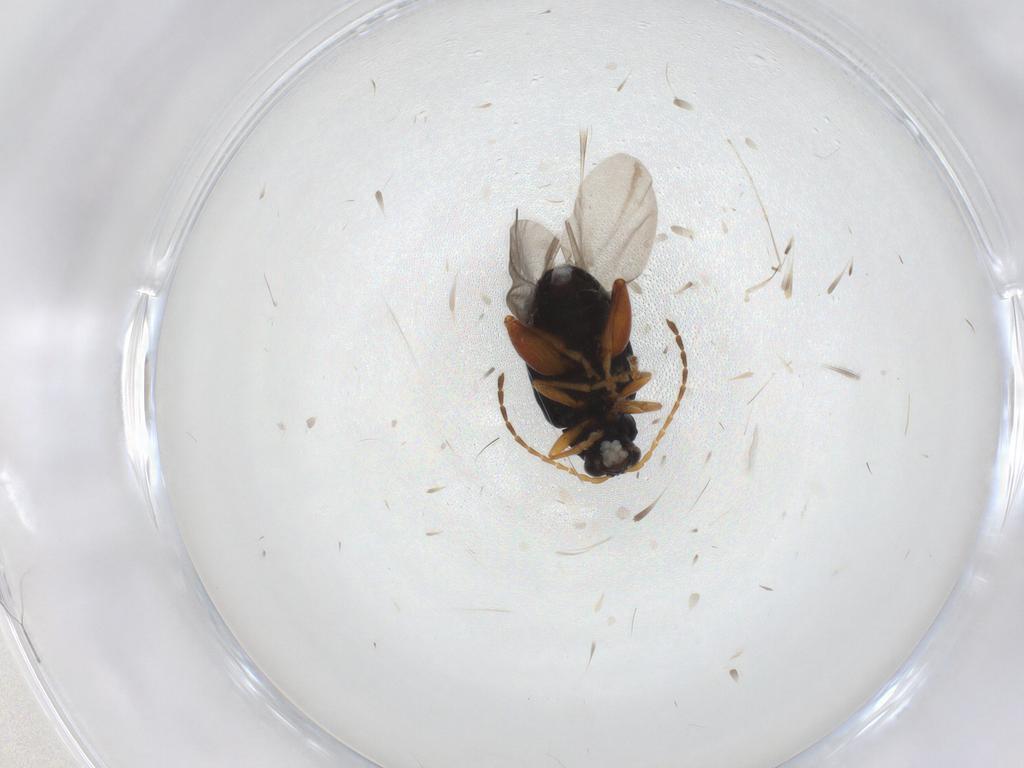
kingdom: Animalia
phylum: Arthropoda
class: Insecta
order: Coleoptera
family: Chrysomelidae
